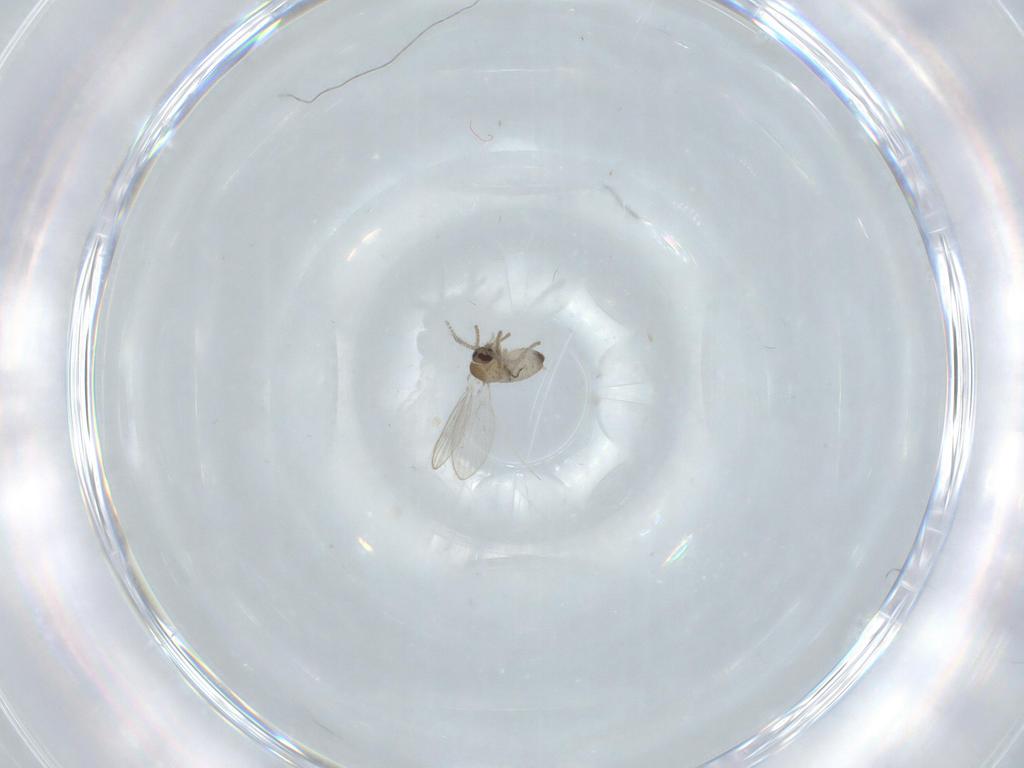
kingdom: Animalia
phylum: Arthropoda
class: Insecta
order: Diptera
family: Psychodidae
